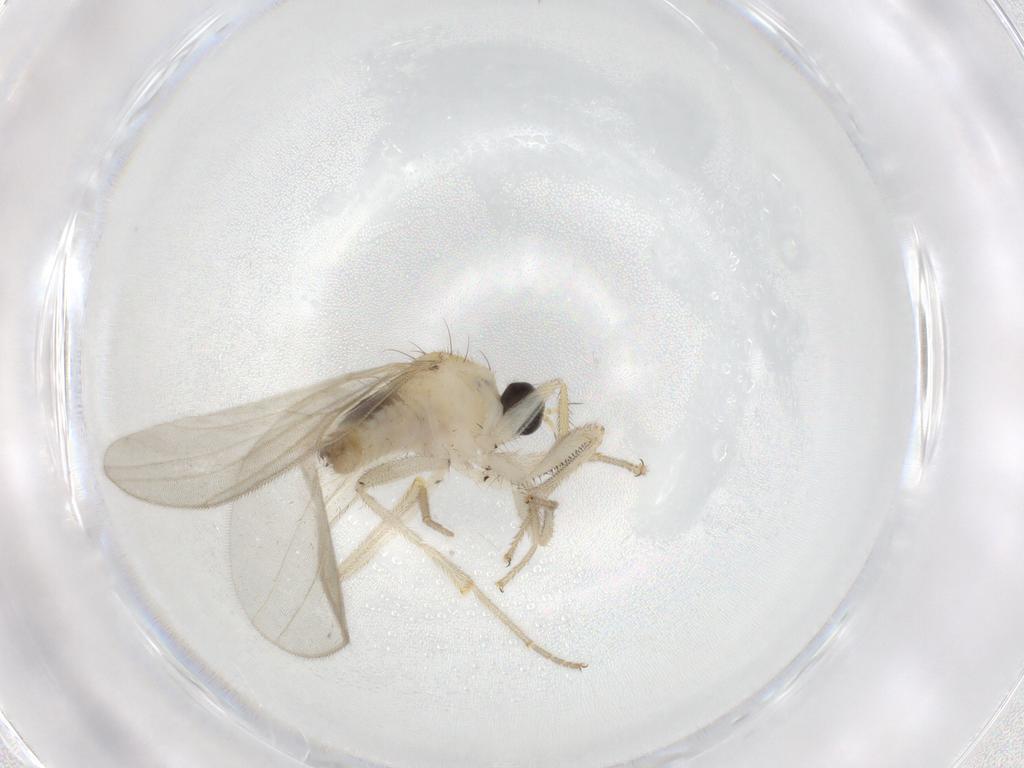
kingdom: Animalia
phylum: Arthropoda
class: Insecta
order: Diptera
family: Hybotidae
